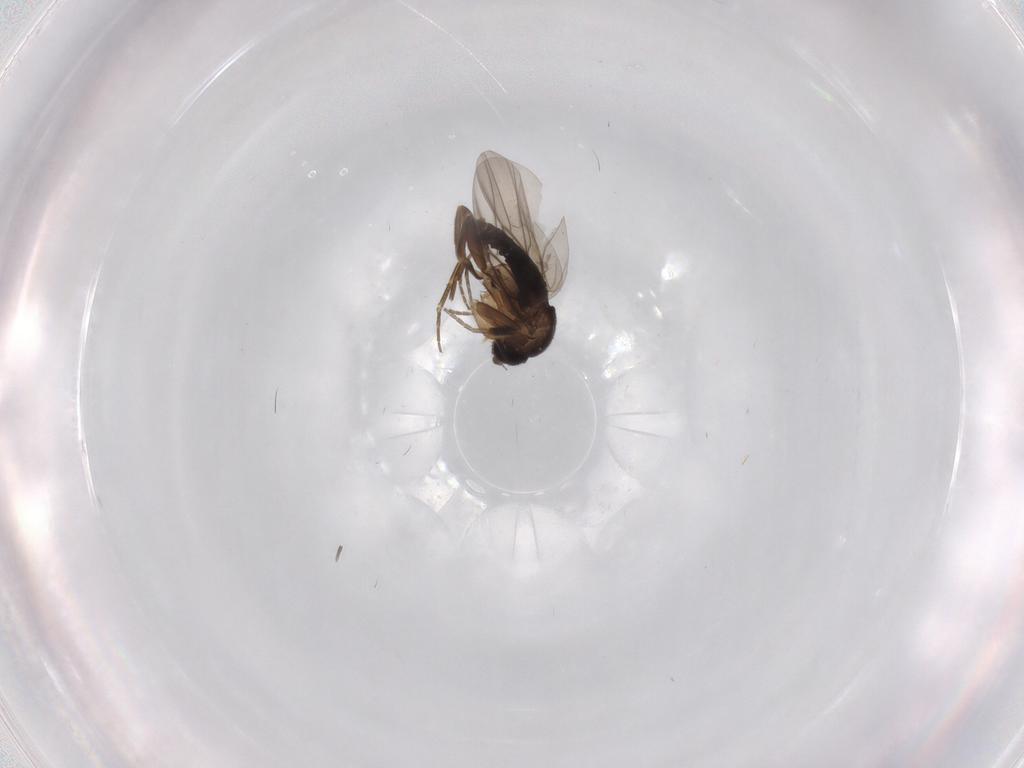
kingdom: Animalia
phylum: Arthropoda
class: Insecta
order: Diptera
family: Phoridae
